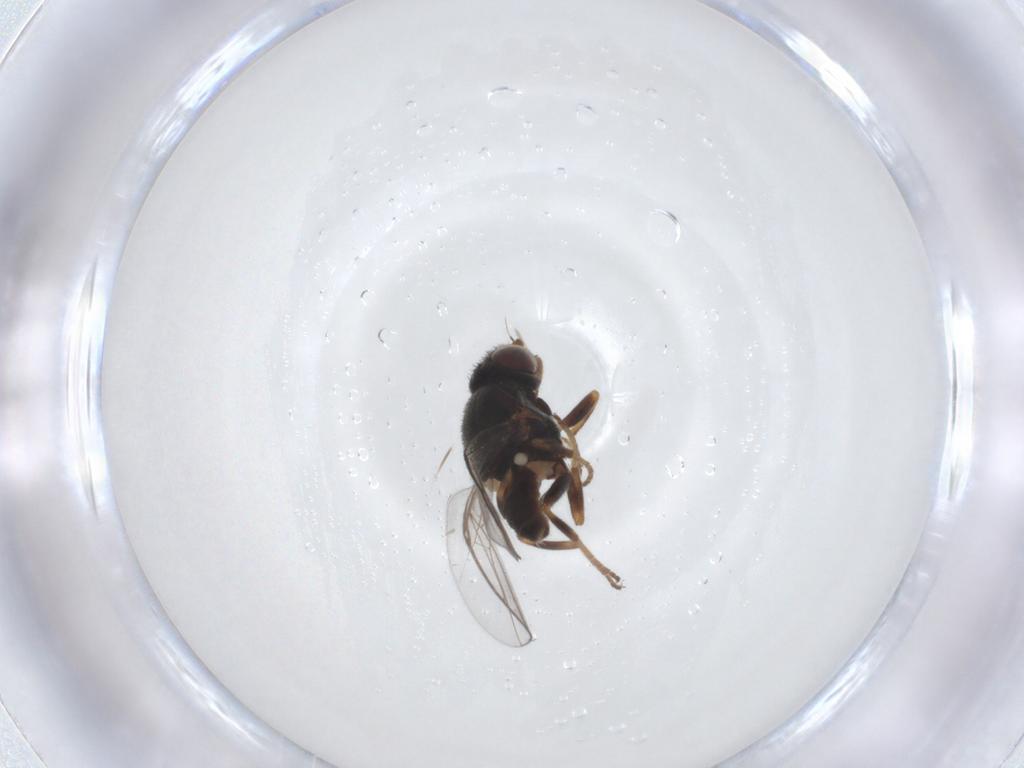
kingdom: Animalia
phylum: Arthropoda
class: Insecta
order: Diptera
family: Chloropidae
